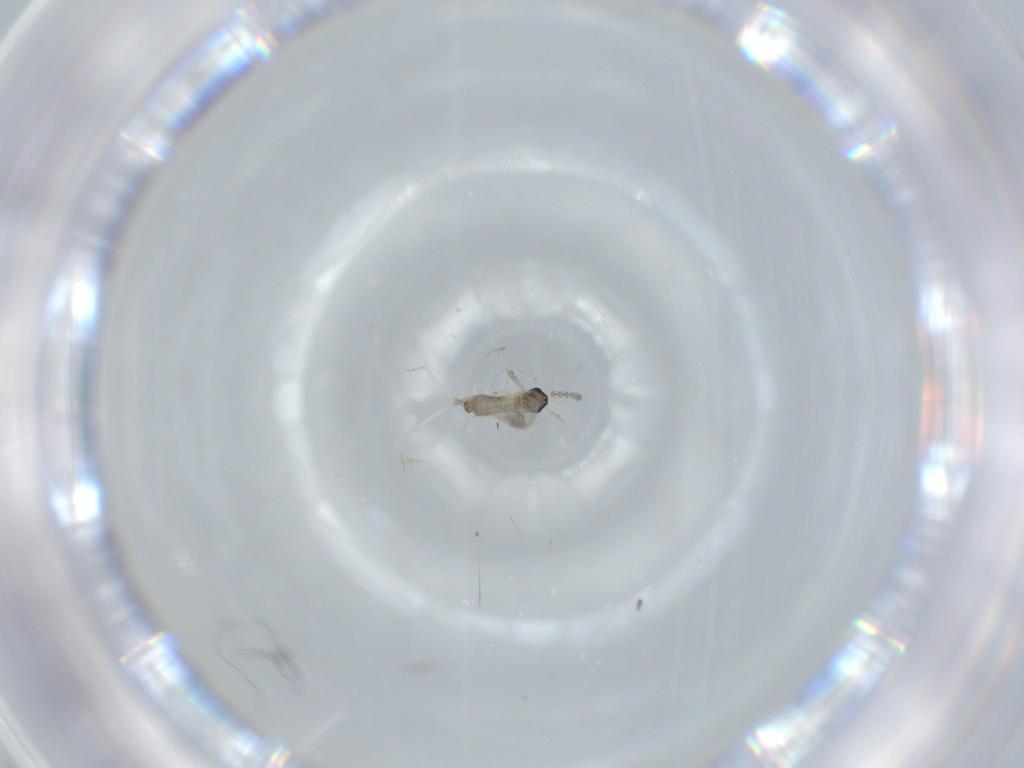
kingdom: Animalia
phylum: Arthropoda
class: Insecta
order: Diptera
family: Cecidomyiidae
